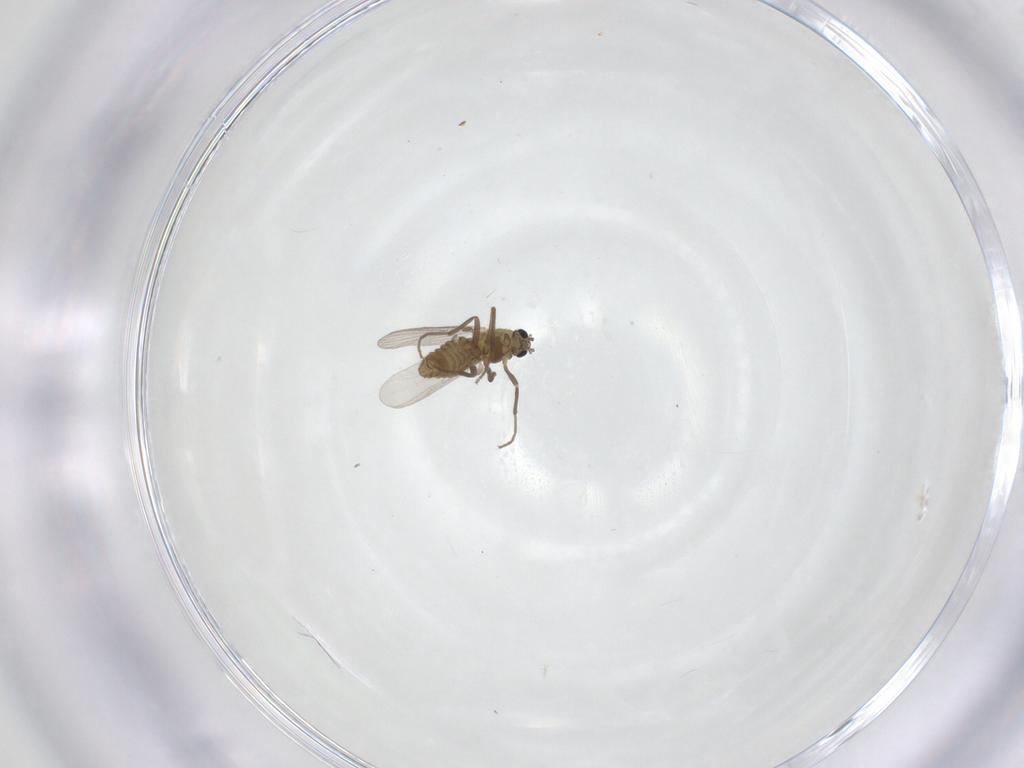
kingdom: Animalia
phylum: Arthropoda
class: Insecta
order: Diptera
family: Chironomidae
